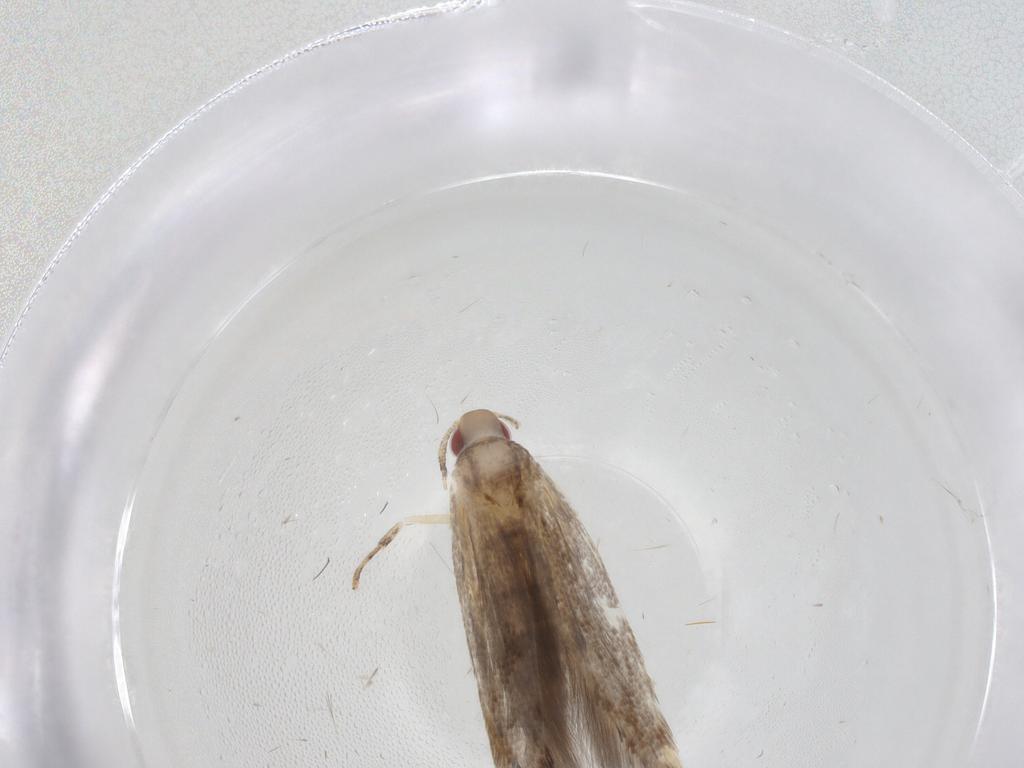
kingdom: Animalia
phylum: Arthropoda
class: Insecta
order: Lepidoptera
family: Cosmopterigidae
